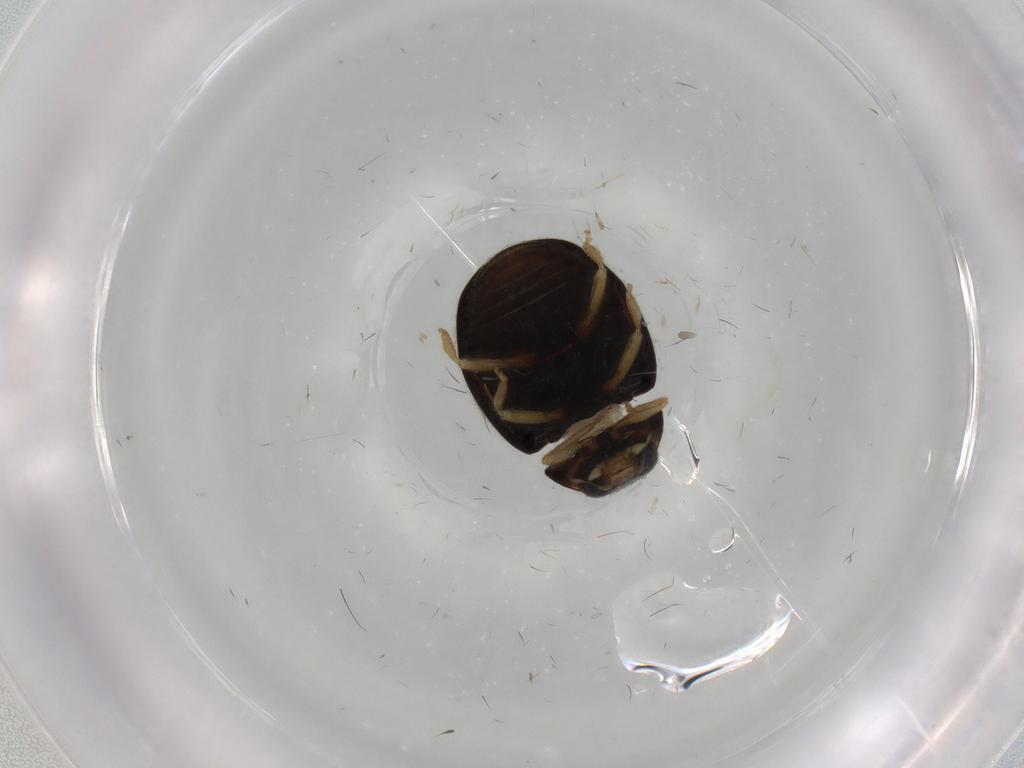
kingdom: Animalia
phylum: Arthropoda
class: Insecta
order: Coleoptera
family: Coccinellidae
